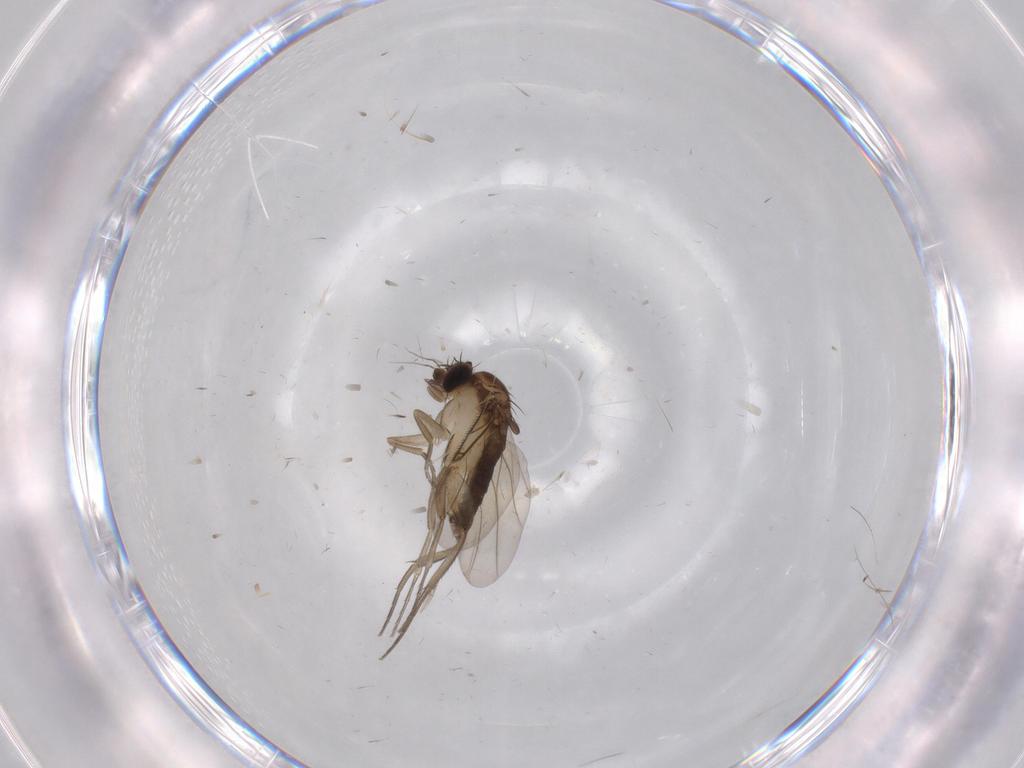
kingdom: Animalia
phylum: Arthropoda
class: Insecta
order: Diptera
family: Phoridae
